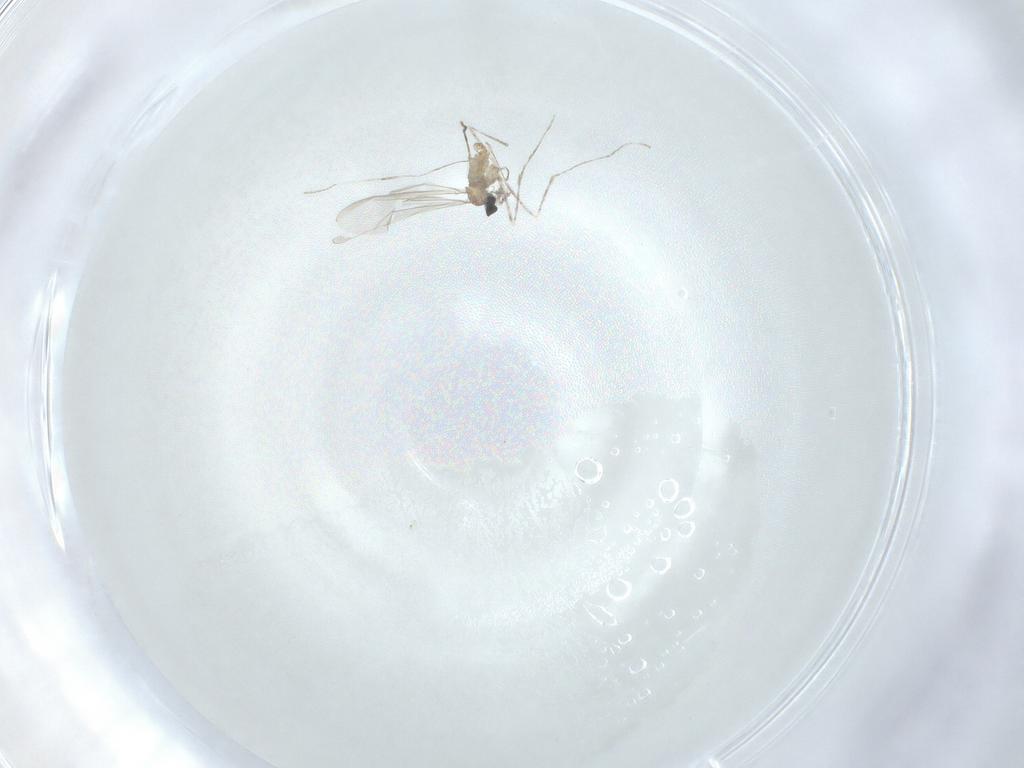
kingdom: Animalia
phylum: Arthropoda
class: Insecta
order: Diptera
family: Cecidomyiidae
